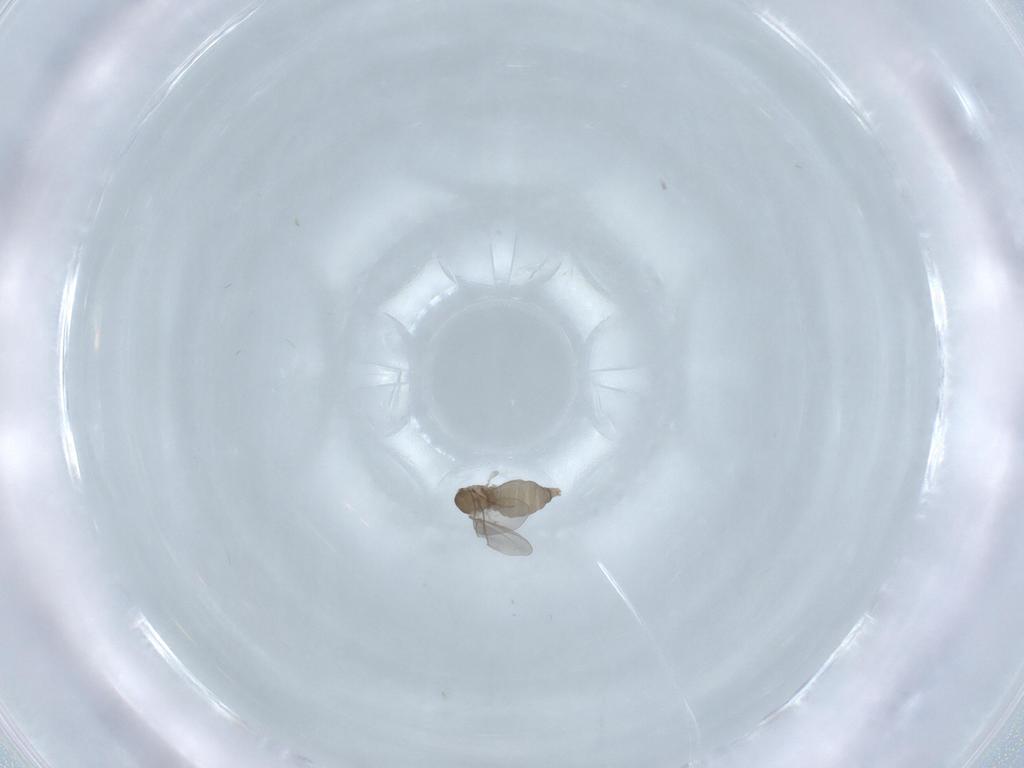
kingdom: Animalia
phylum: Arthropoda
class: Insecta
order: Diptera
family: Cecidomyiidae
